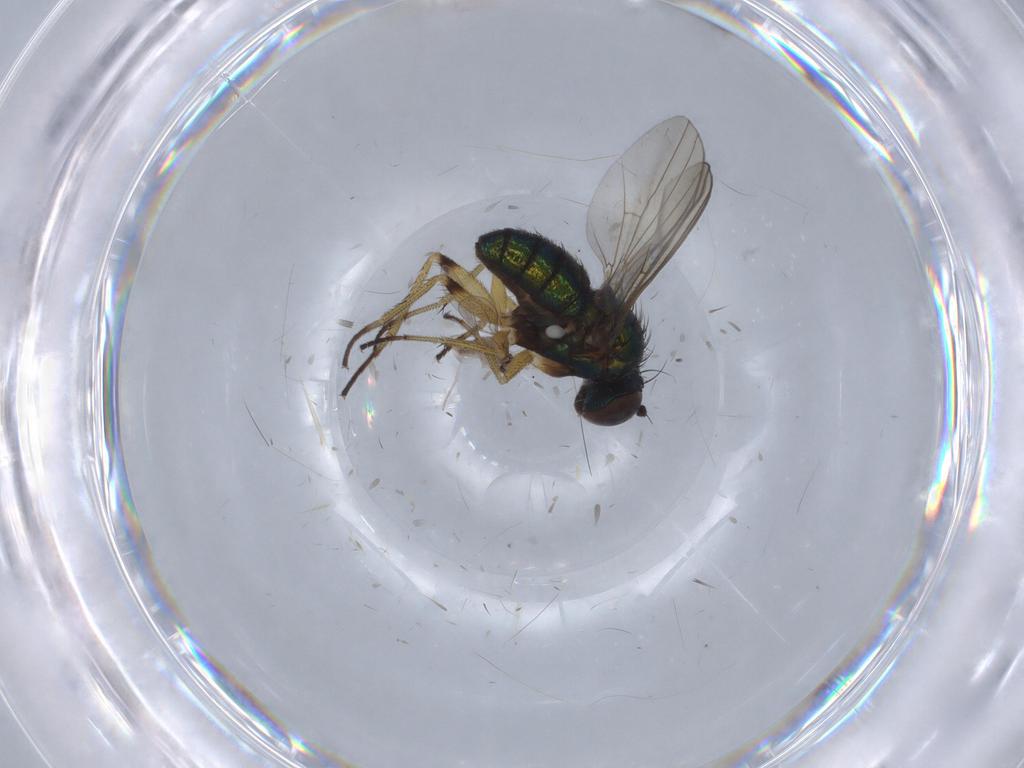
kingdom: Animalia
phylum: Arthropoda
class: Insecta
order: Diptera
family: Cecidomyiidae
